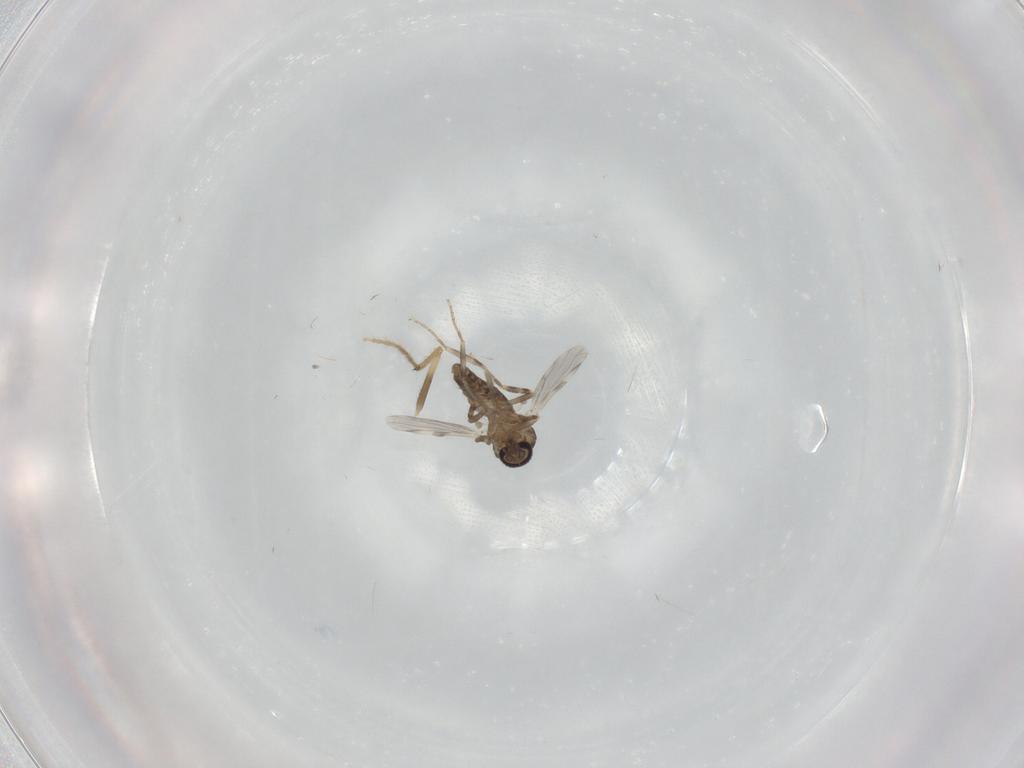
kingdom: Animalia
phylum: Arthropoda
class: Insecta
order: Diptera
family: Ceratopogonidae
